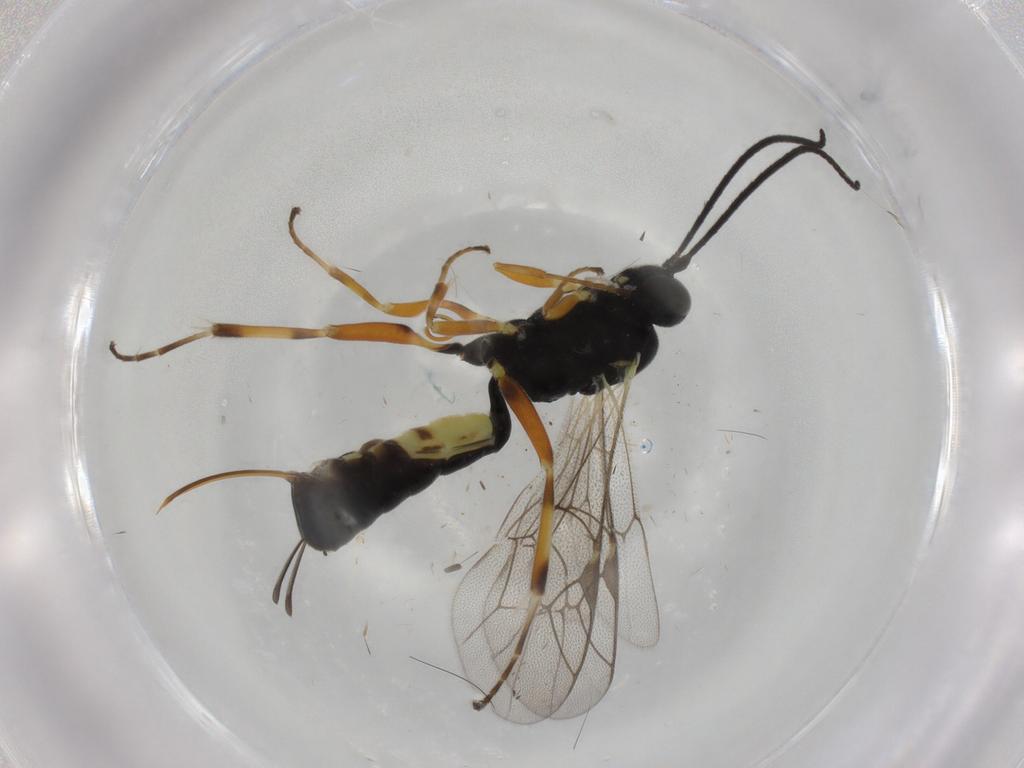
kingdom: Animalia
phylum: Arthropoda
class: Insecta
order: Hymenoptera
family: Ichneumonidae
